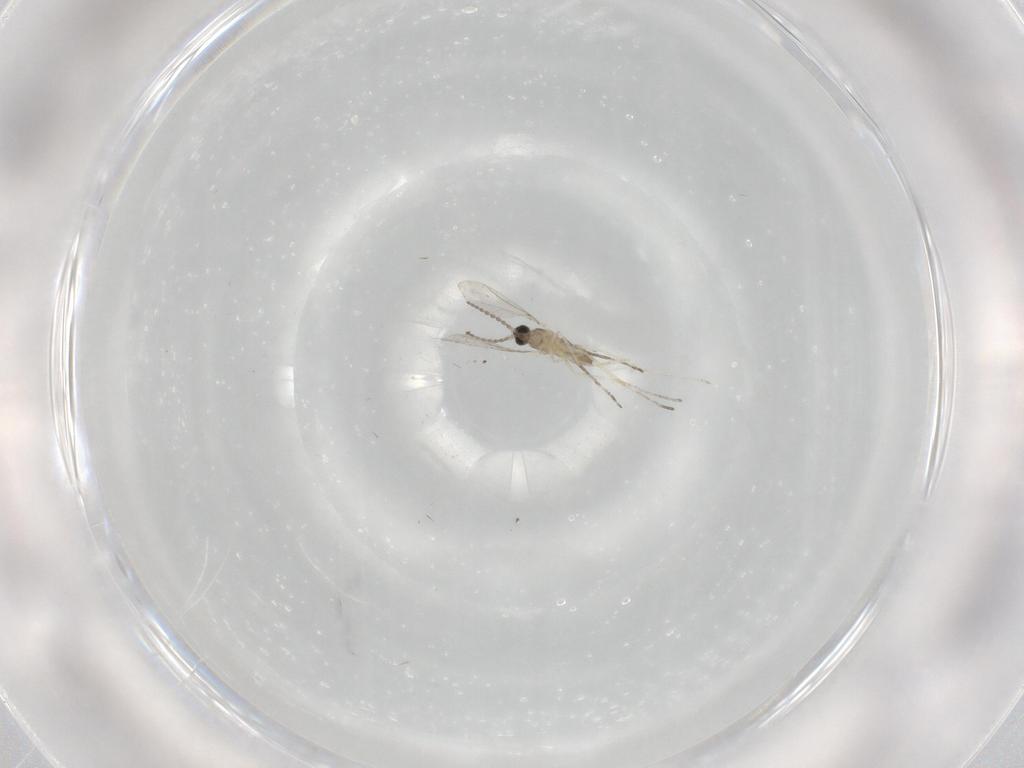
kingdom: Animalia
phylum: Arthropoda
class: Insecta
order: Diptera
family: Cecidomyiidae
